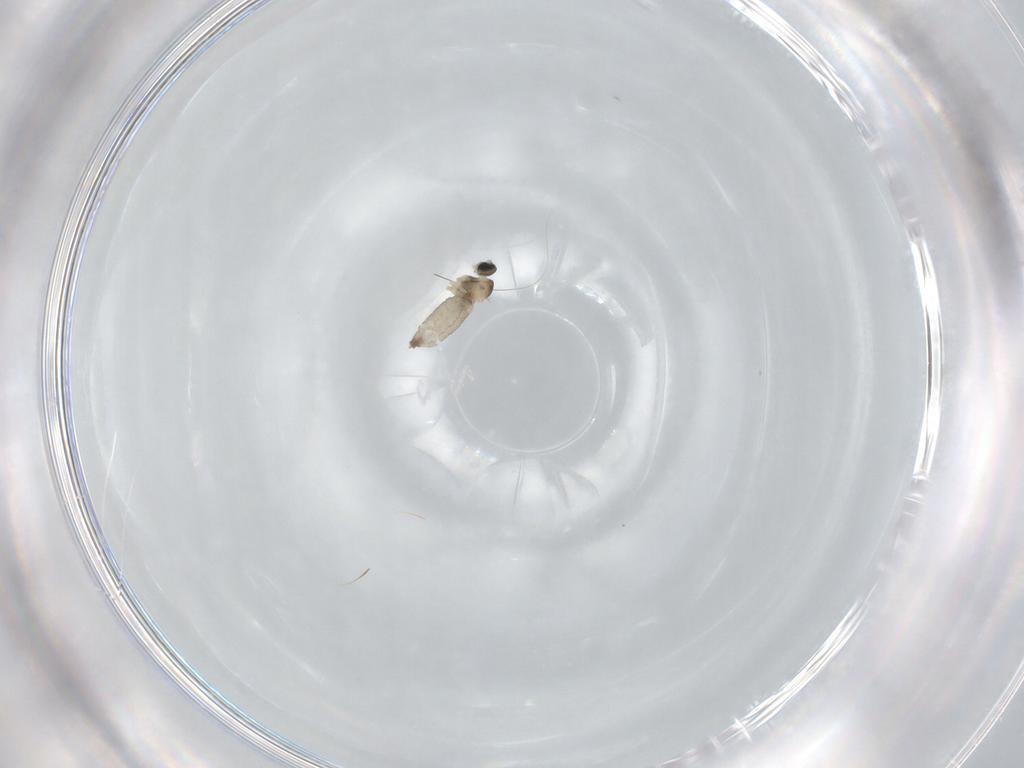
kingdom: Animalia
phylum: Arthropoda
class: Insecta
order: Diptera
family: Cecidomyiidae
